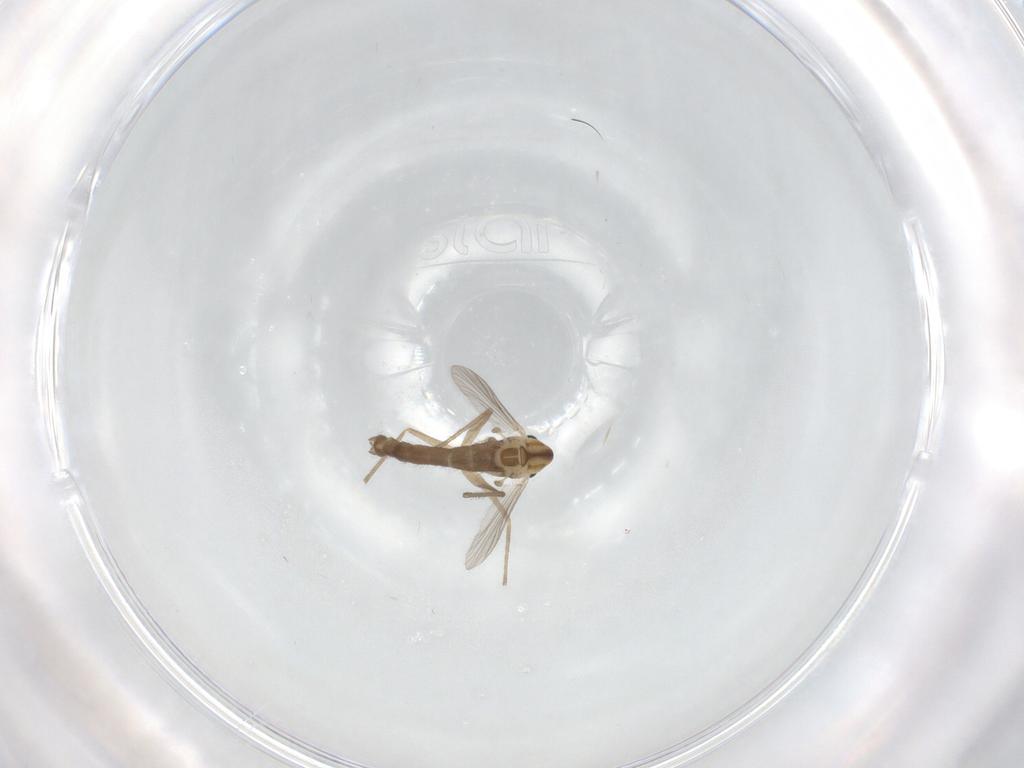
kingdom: Animalia
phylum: Arthropoda
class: Insecta
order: Diptera
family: Chironomidae
